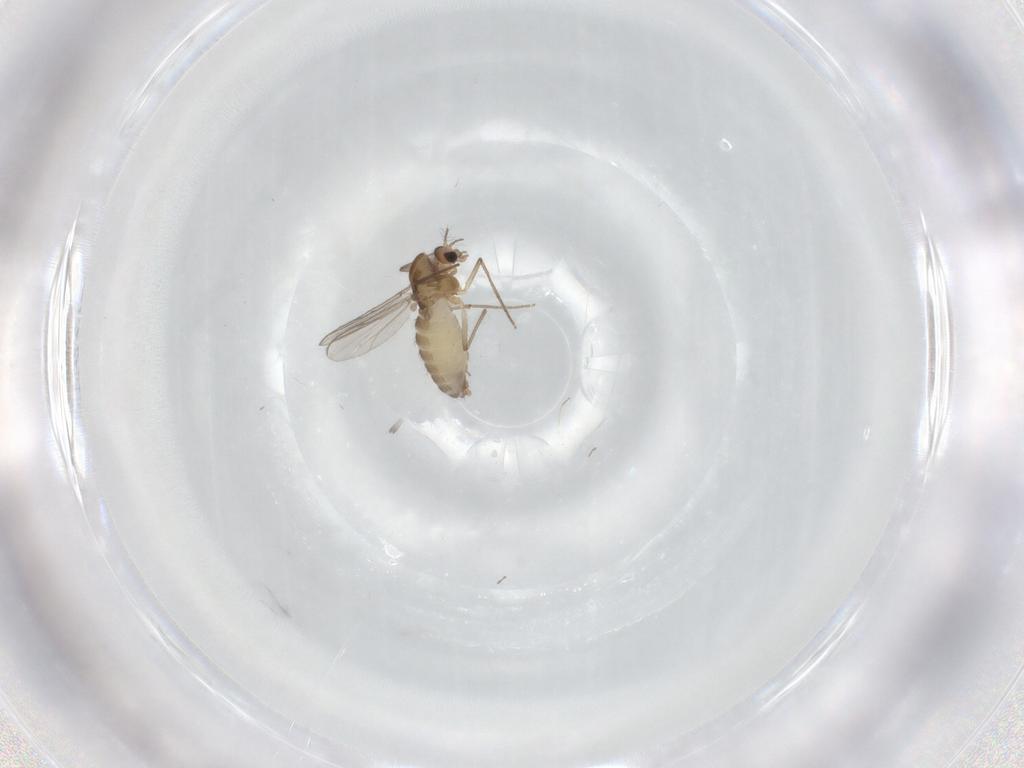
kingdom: Animalia
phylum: Arthropoda
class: Insecta
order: Diptera
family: Chironomidae
